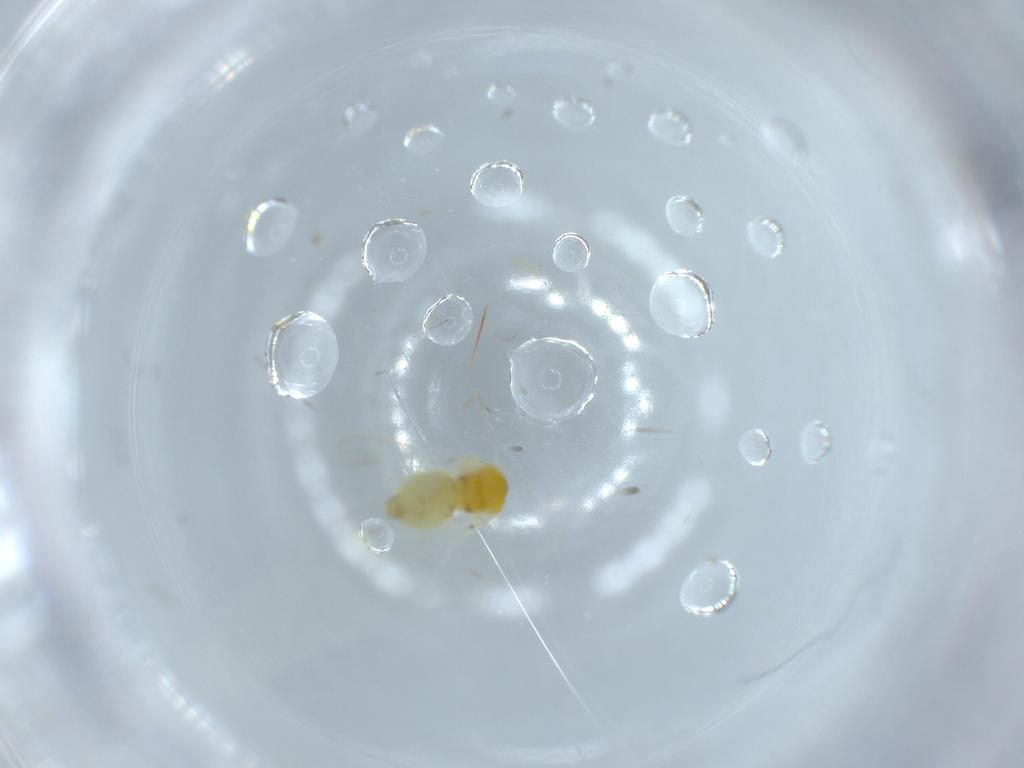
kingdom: Animalia
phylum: Arthropoda
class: Insecta
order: Hemiptera
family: Aleyrodidae
